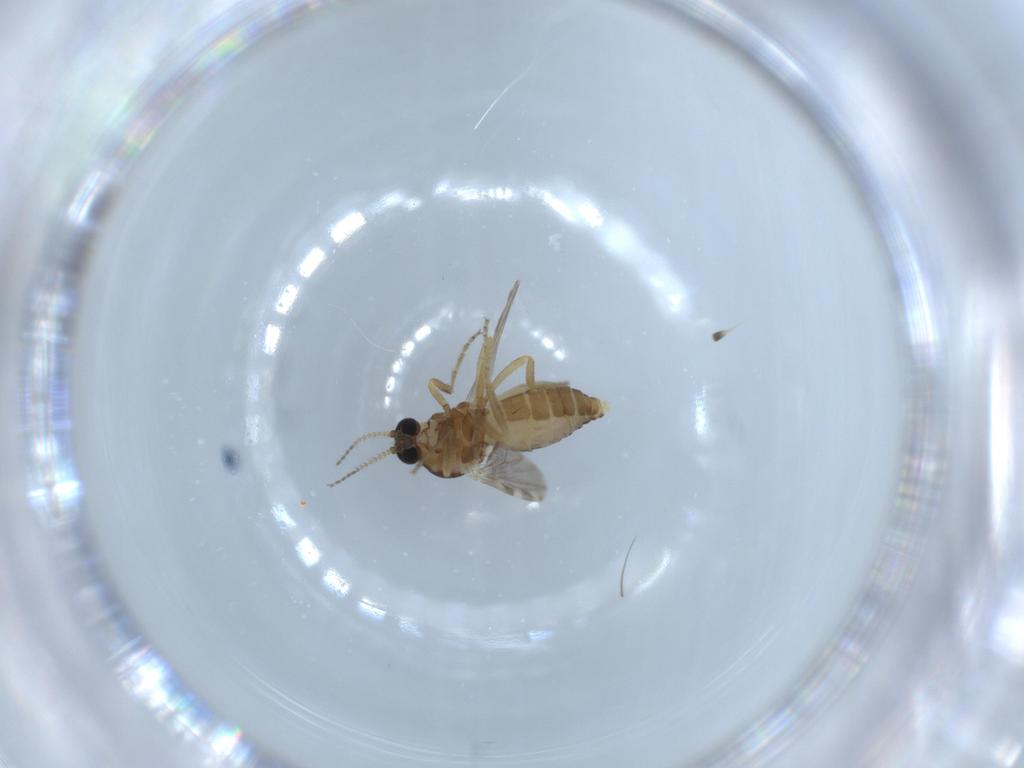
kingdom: Animalia
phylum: Arthropoda
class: Insecta
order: Diptera
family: Ceratopogonidae
